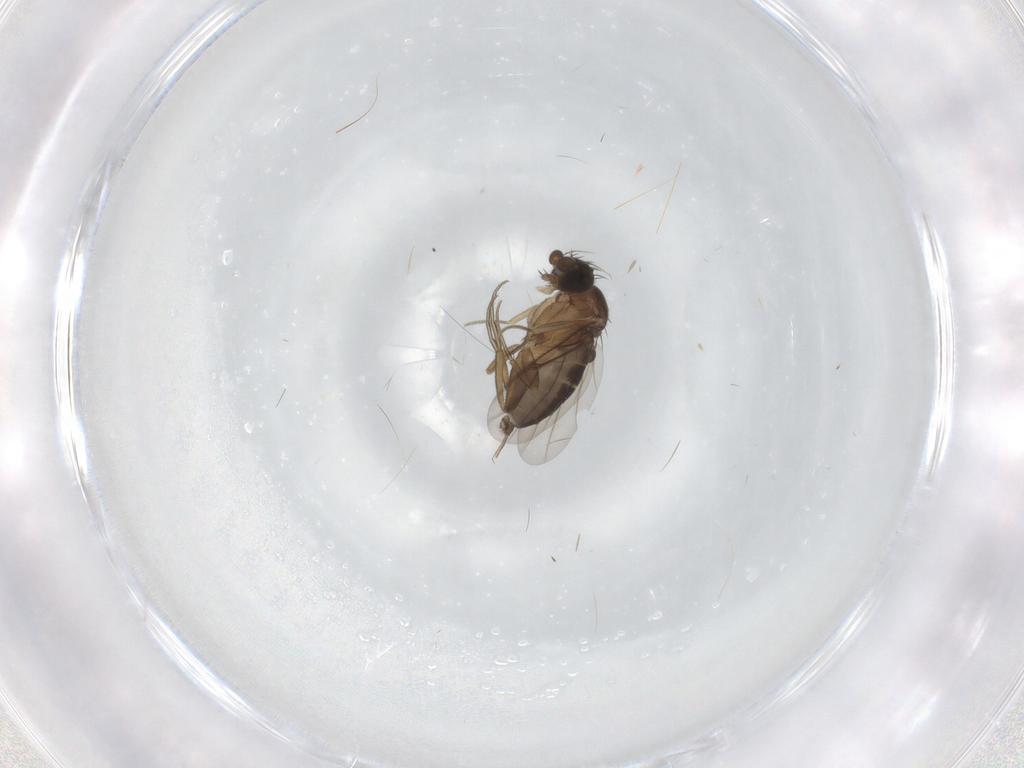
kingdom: Animalia
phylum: Arthropoda
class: Insecta
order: Diptera
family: Phoridae
